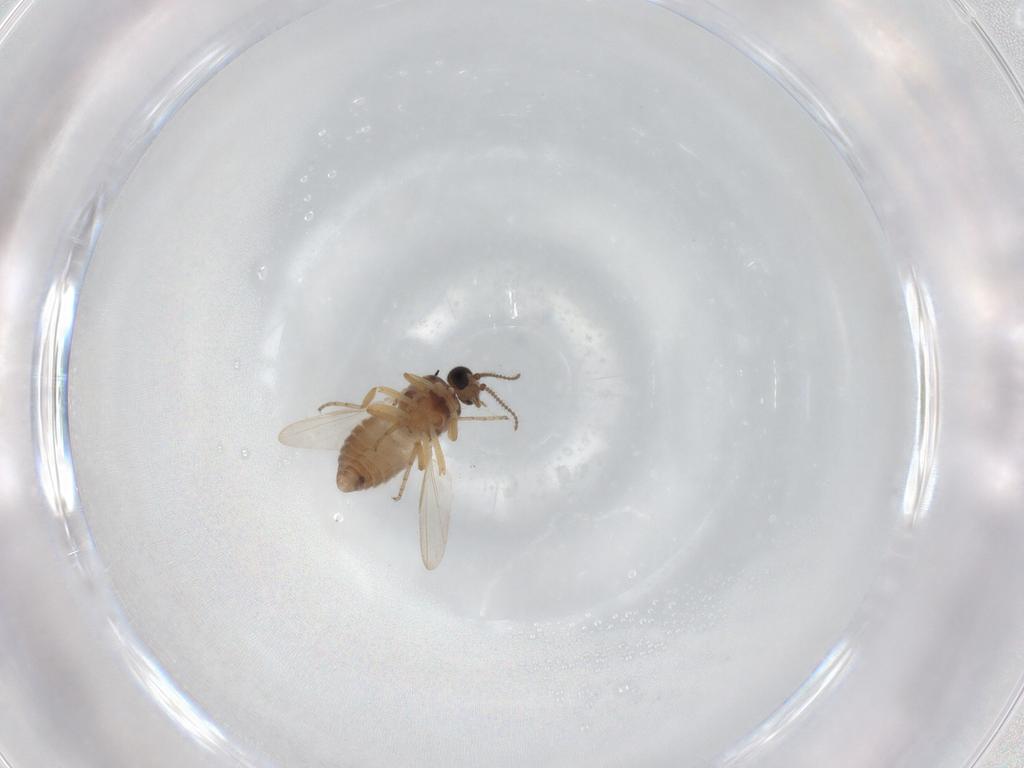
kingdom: Animalia
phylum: Arthropoda
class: Insecta
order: Diptera
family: Ceratopogonidae
